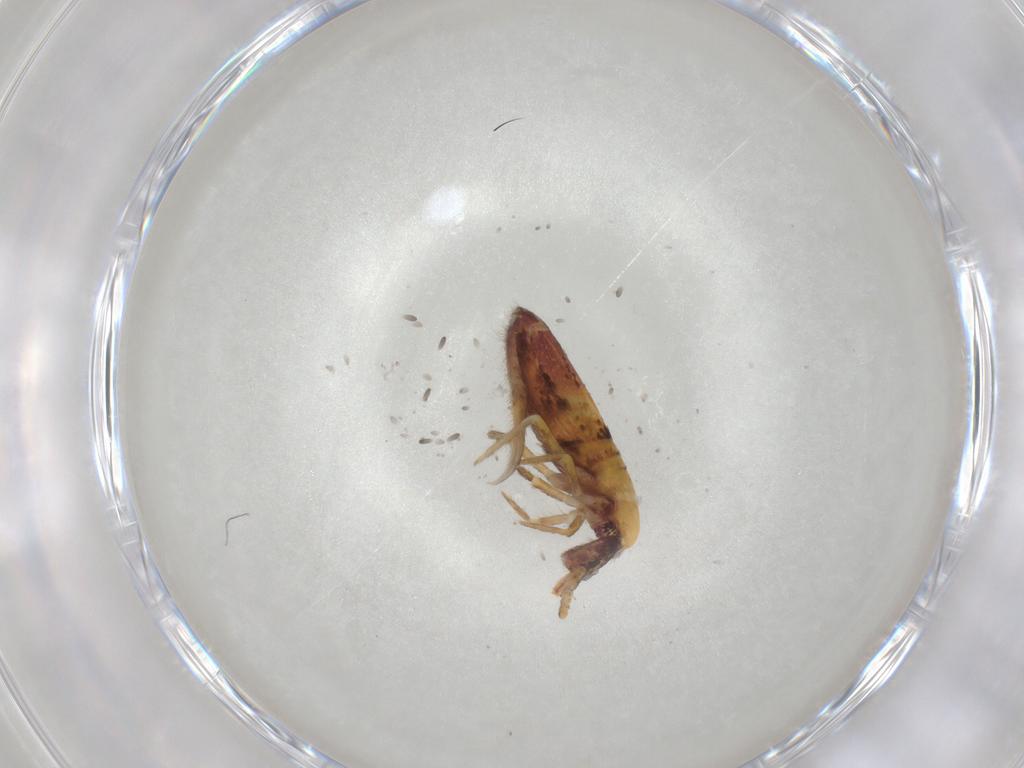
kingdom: Animalia
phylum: Arthropoda
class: Collembola
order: Entomobryomorpha
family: Entomobryidae
